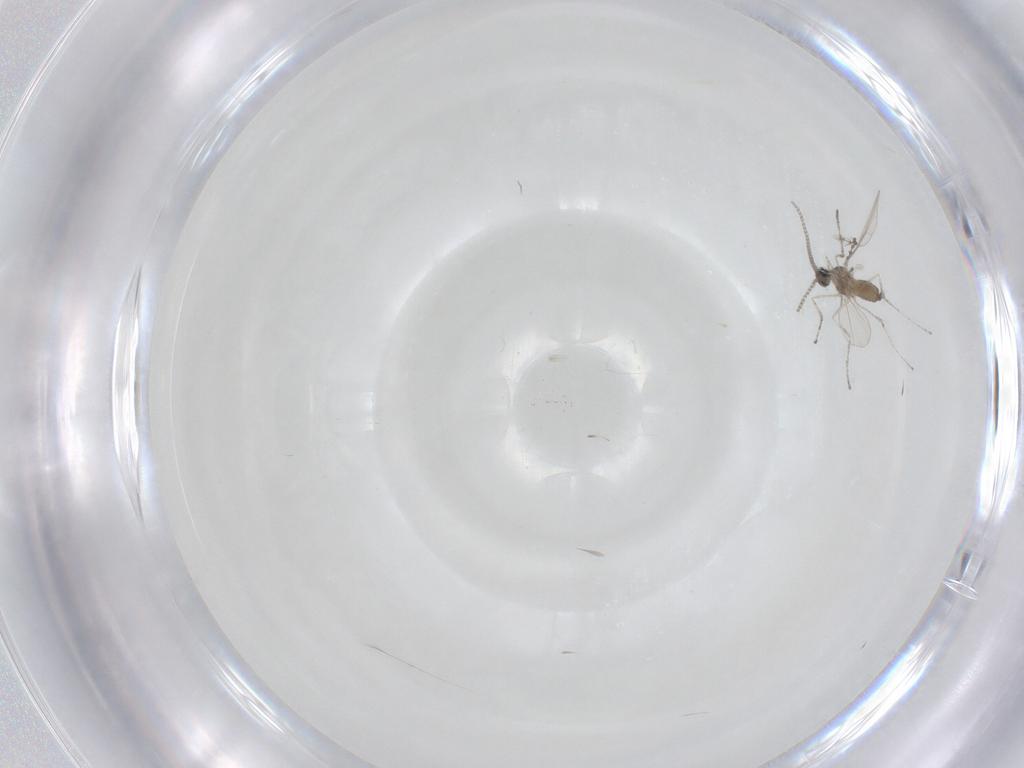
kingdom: Animalia
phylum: Arthropoda
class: Insecta
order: Diptera
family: Cecidomyiidae
